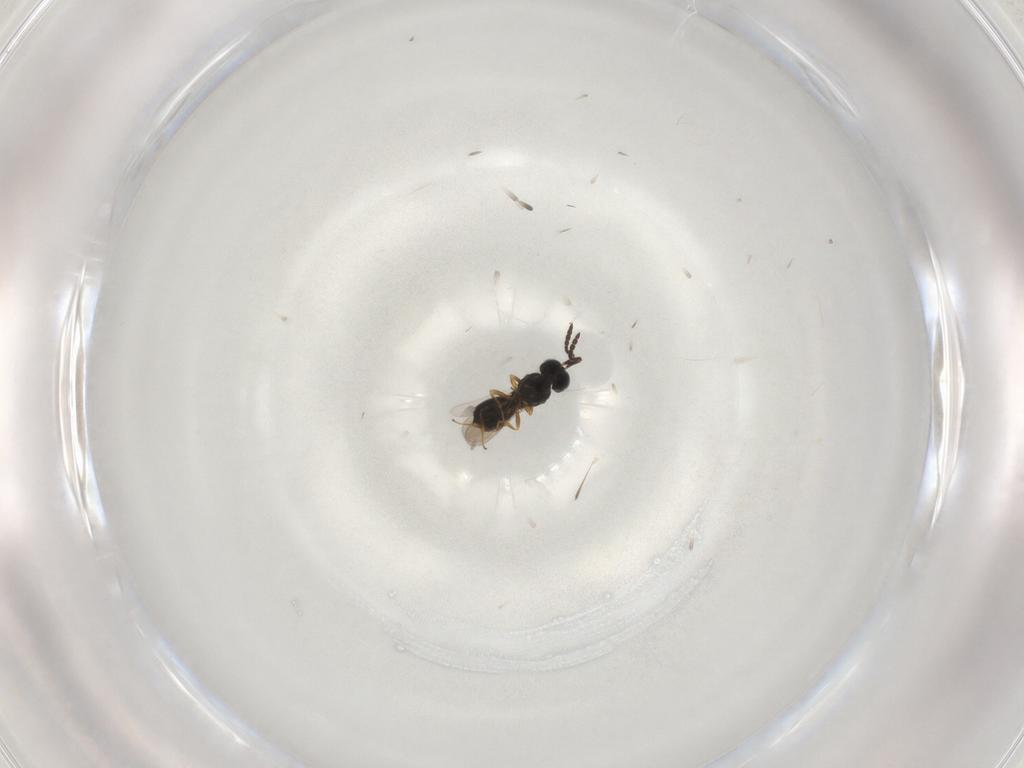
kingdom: Animalia
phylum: Arthropoda
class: Insecta
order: Hymenoptera
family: Scelionidae
